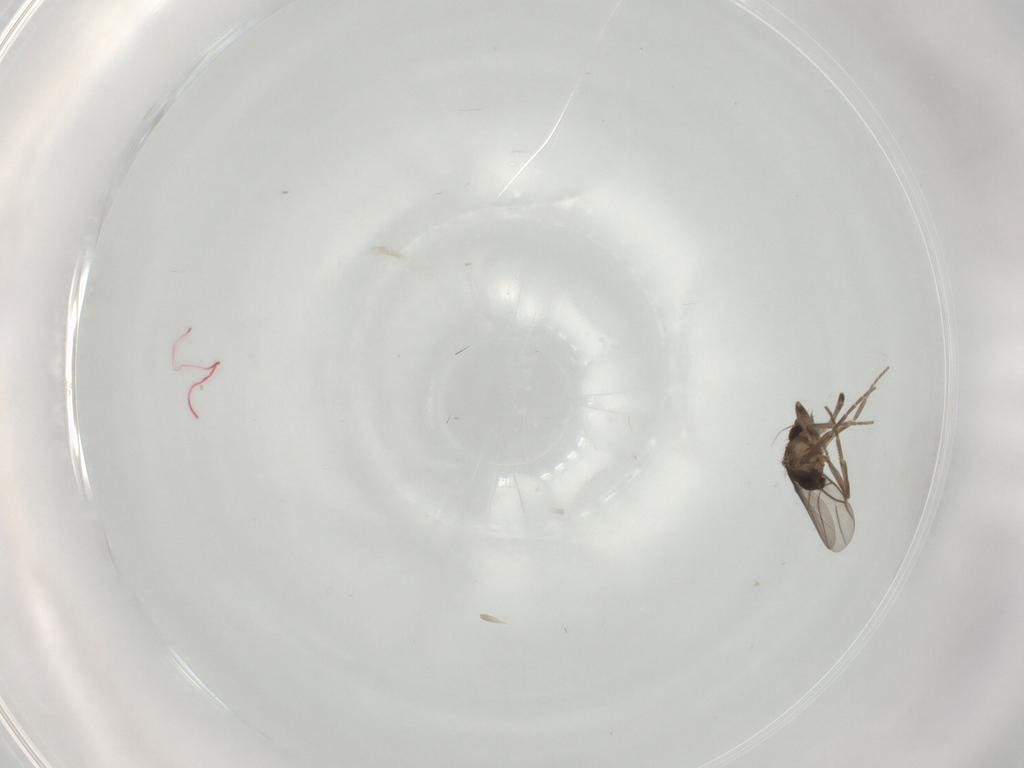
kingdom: Animalia
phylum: Arthropoda
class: Insecta
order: Diptera
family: Phoridae
